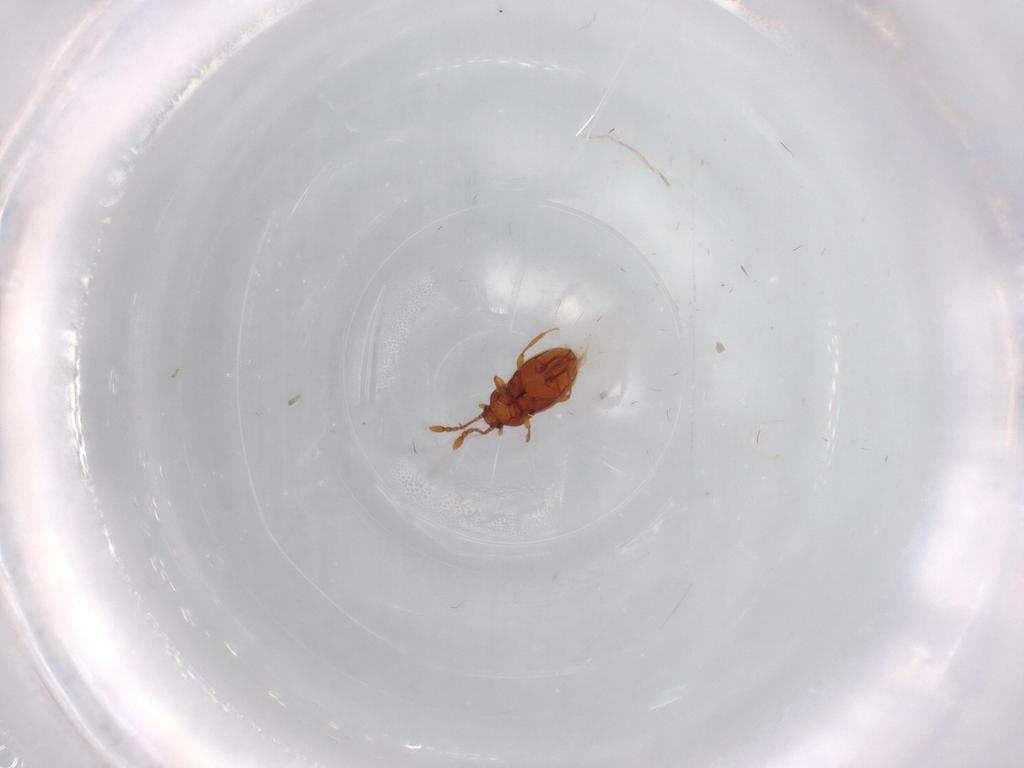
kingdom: Animalia
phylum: Arthropoda
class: Insecta
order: Coleoptera
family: Staphylinidae
